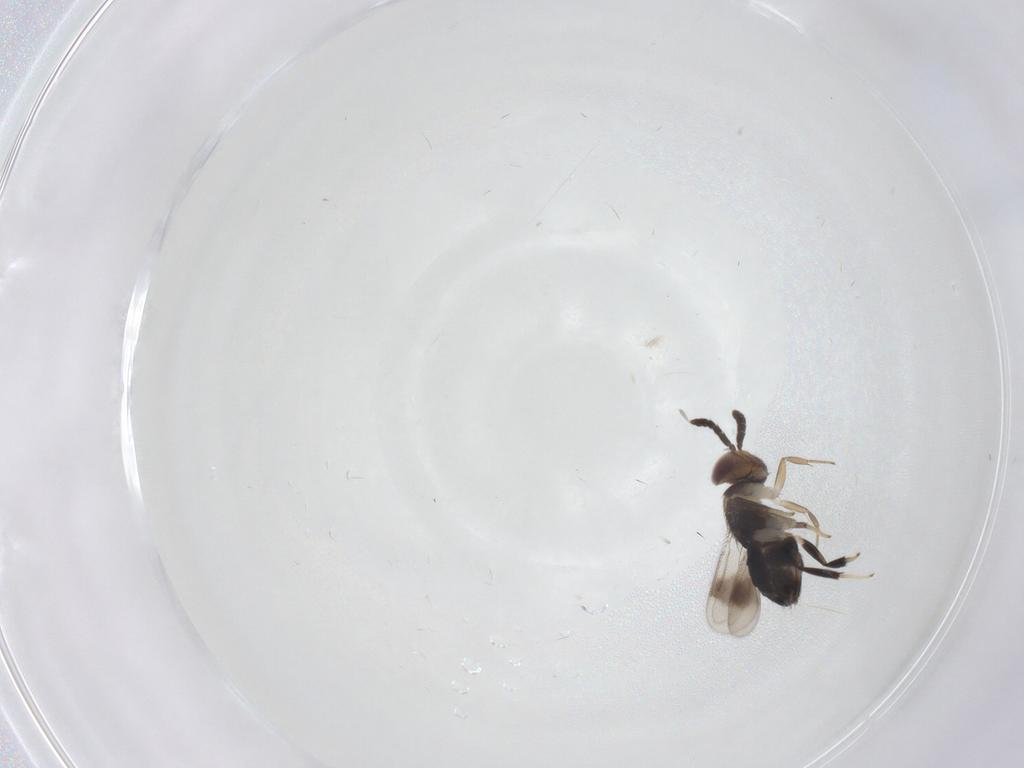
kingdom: Animalia
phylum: Arthropoda
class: Insecta
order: Hymenoptera
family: Aphelinidae
